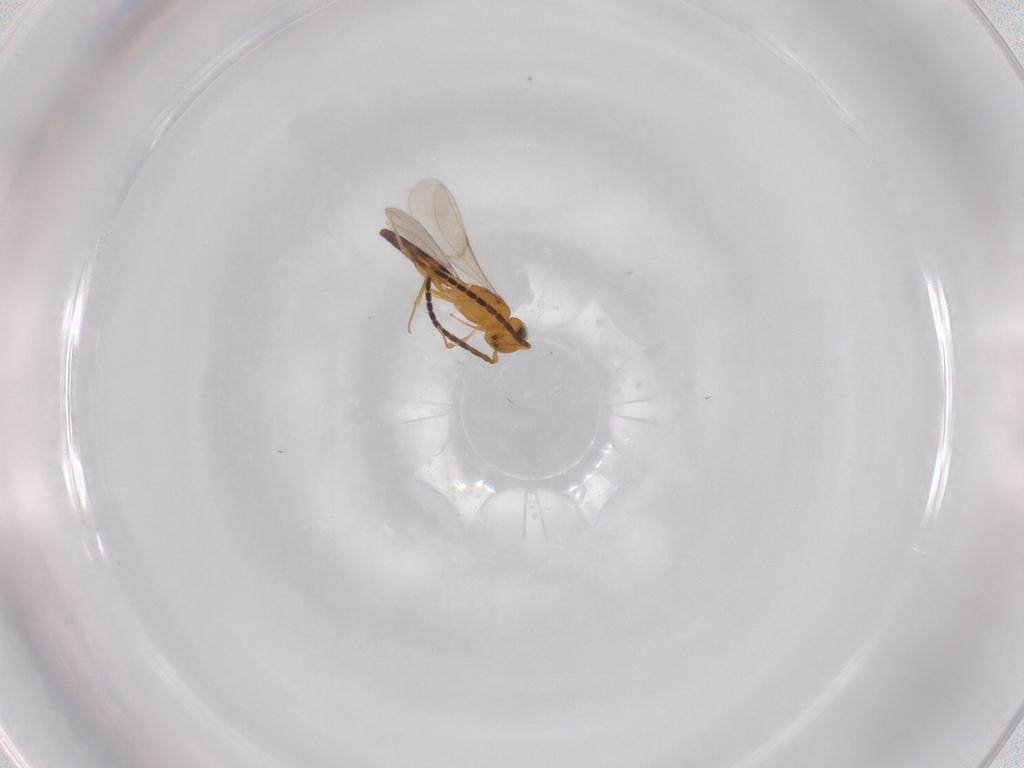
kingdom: Animalia
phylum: Arthropoda
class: Insecta
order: Hymenoptera
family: Scelionidae
